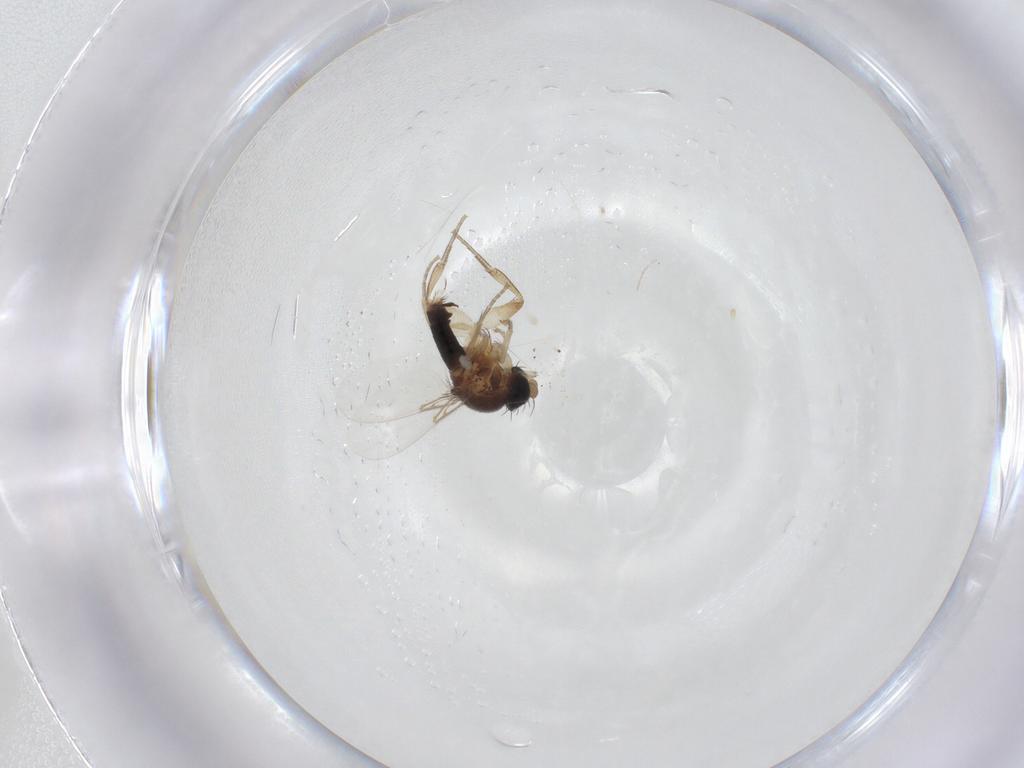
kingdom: Animalia
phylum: Arthropoda
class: Insecta
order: Diptera
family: Phoridae
